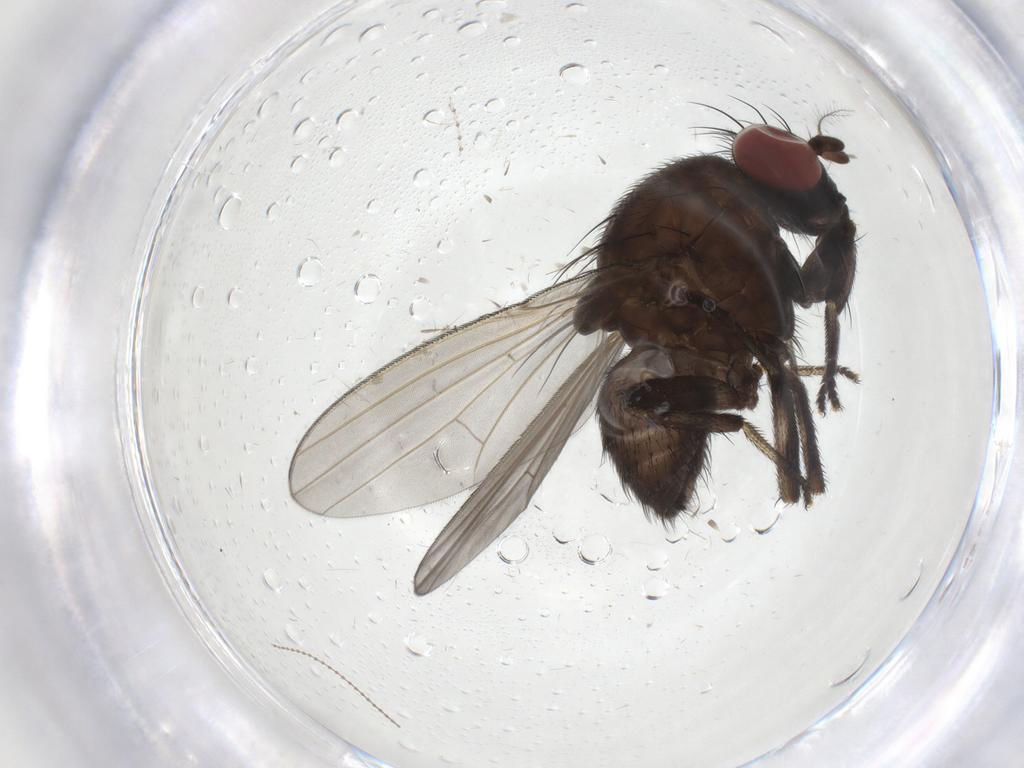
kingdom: Animalia
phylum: Arthropoda
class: Insecta
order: Diptera
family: Lauxaniidae
